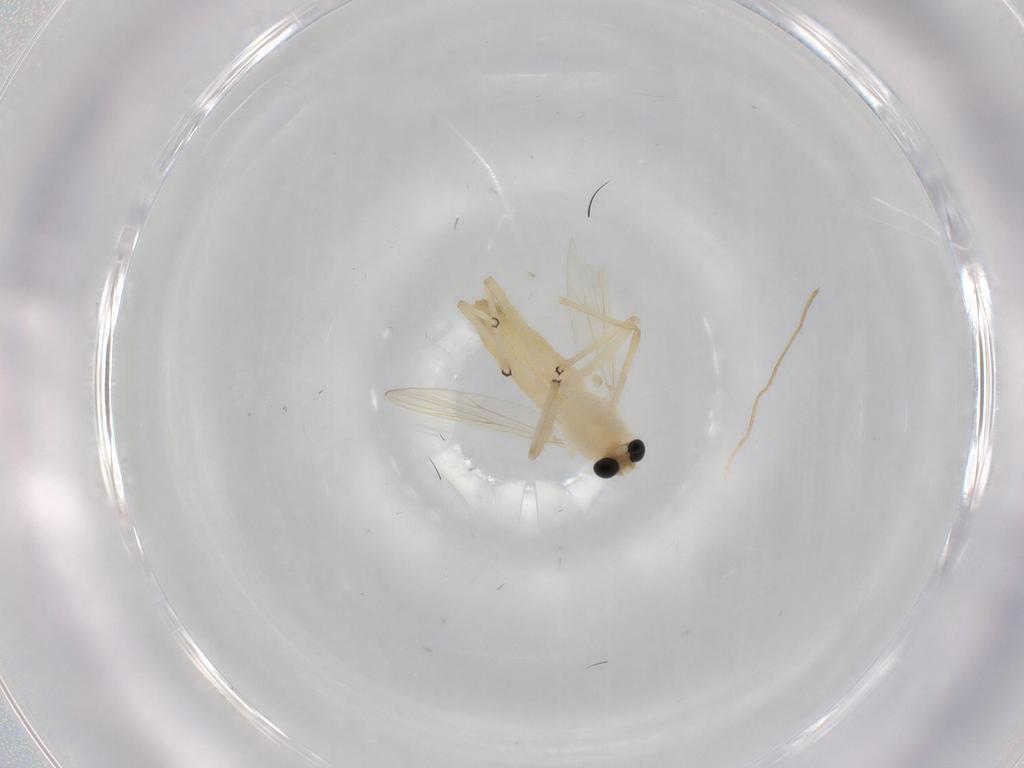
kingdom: Animalia
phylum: Arthropoda
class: Insecta
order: Diptera
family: Chironomidae
